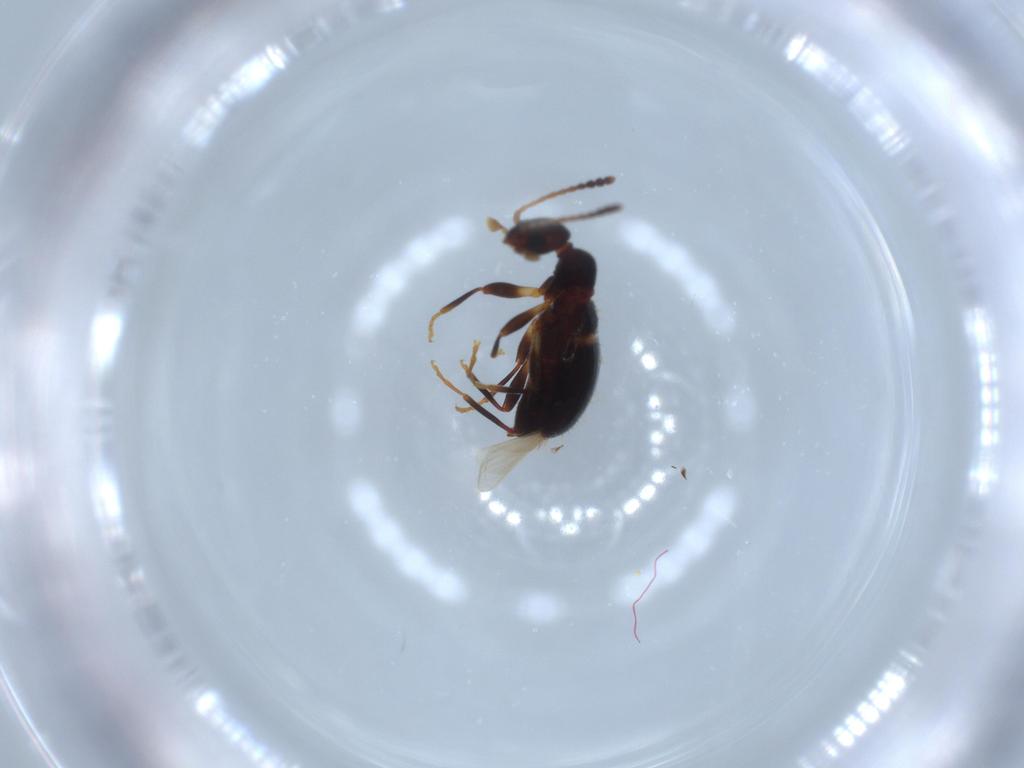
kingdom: Animalia
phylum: Arthropoda
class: Insecta
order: Coleoptera
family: Anthicidae
